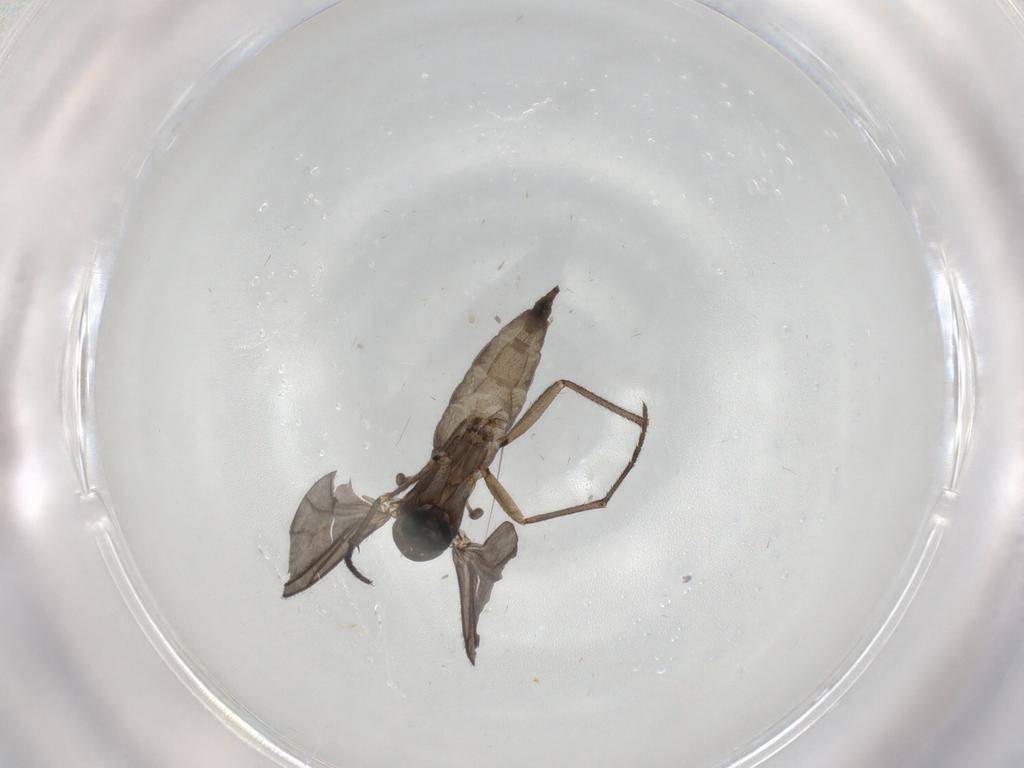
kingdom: Animalia
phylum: Arthropoda
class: Insecta
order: Diptera
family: Sciaridae
